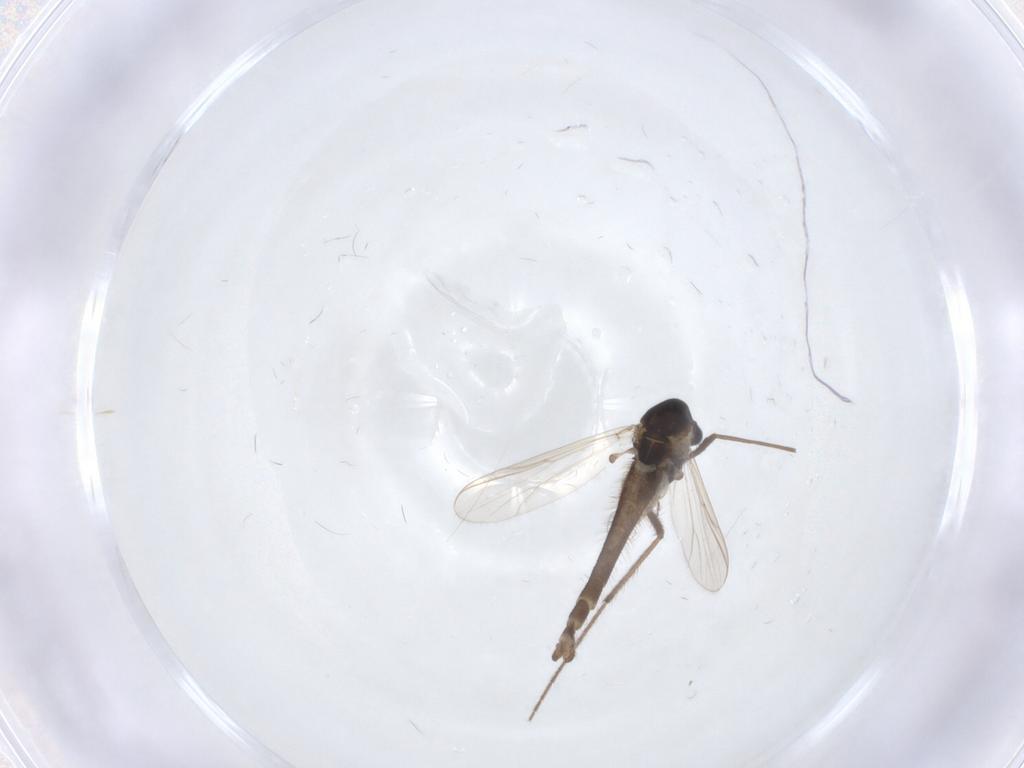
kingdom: Animalia
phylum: Arthropoda
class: Insecta
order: Diptera
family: Chironomidae
